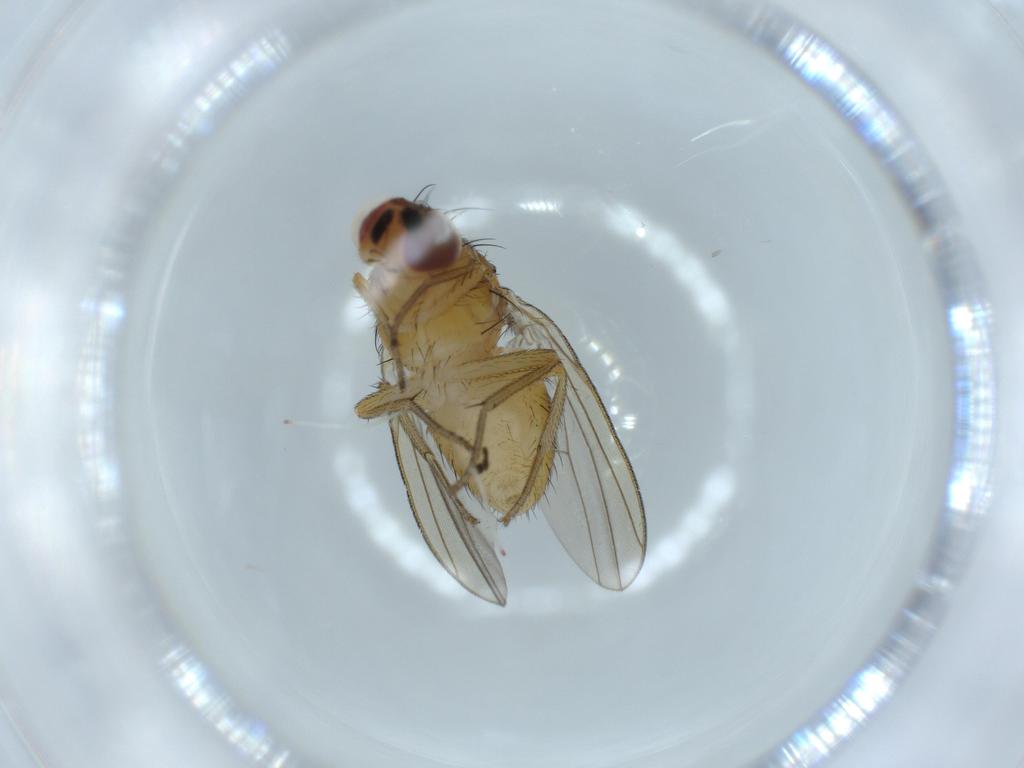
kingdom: Animalia
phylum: Arthropoda
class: Insecta
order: Diptera
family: Lauxaniidae
